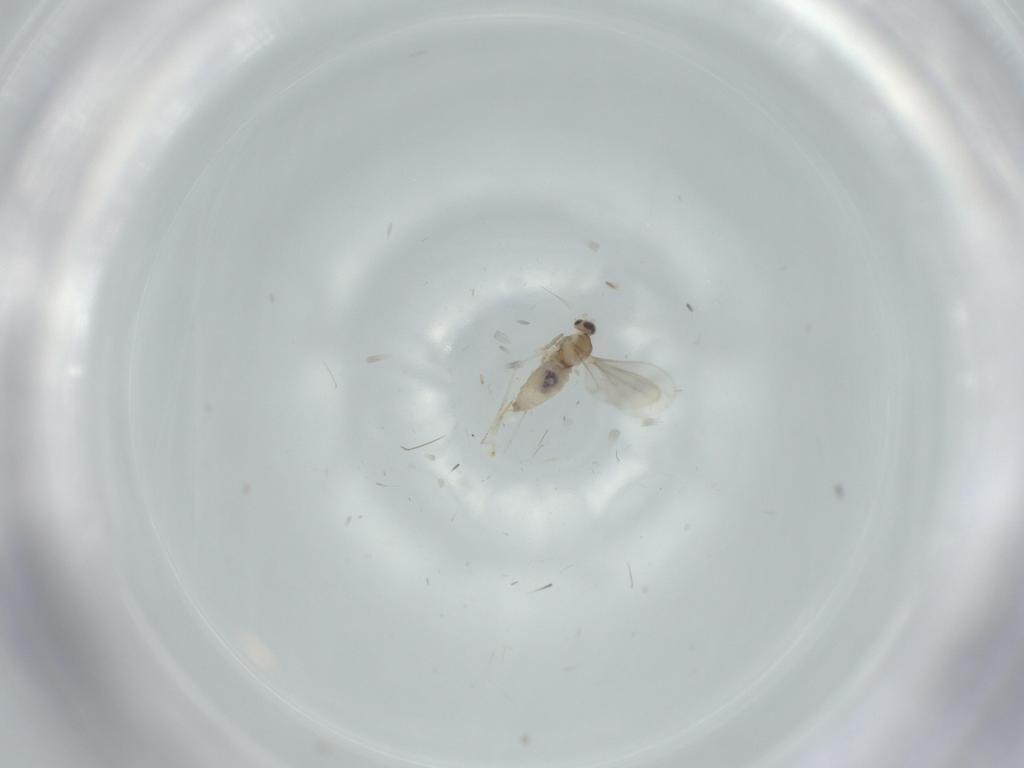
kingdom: Animalia
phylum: Arthropoda
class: Insecta
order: Diptera
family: Cecidomyiidae
